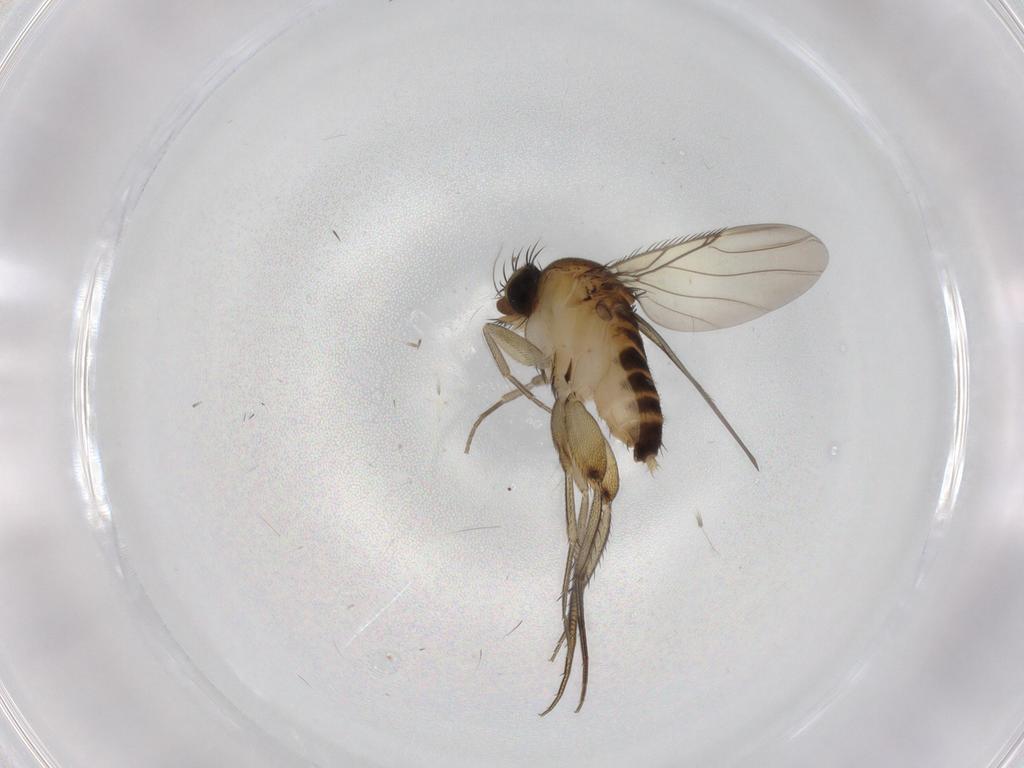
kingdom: Animalia
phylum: Arthropoda
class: Insecta
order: Diptera
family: Phoridae
